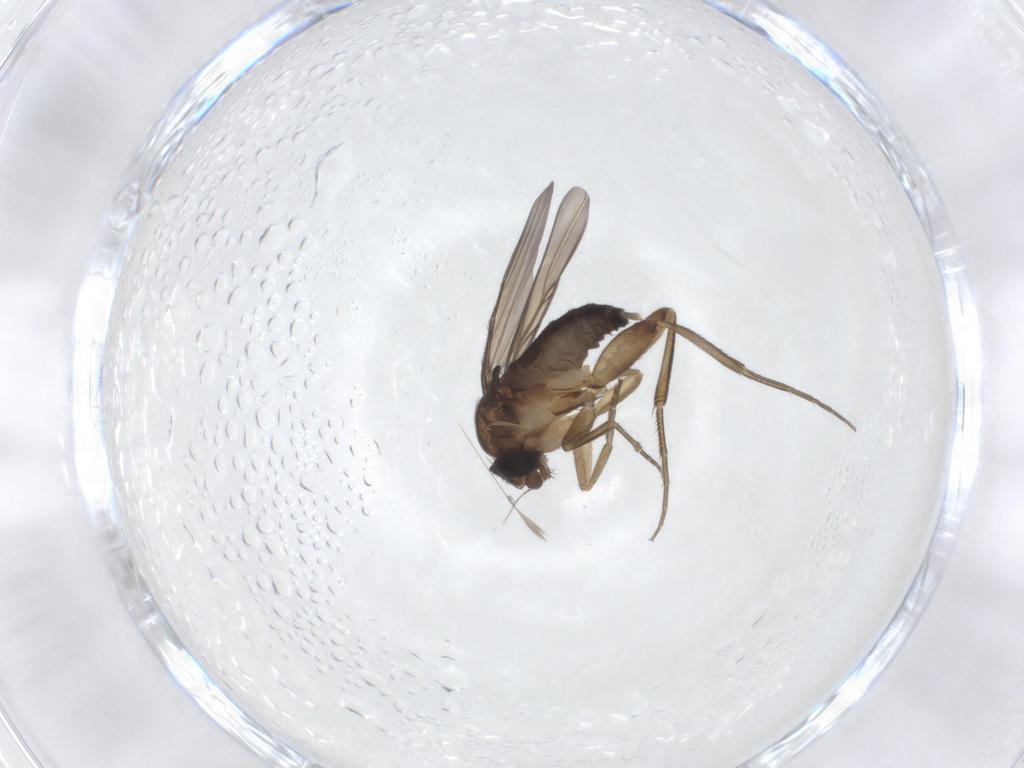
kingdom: Animalia
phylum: Arthropoda
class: Insecta
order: Diptera
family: Phoridae
